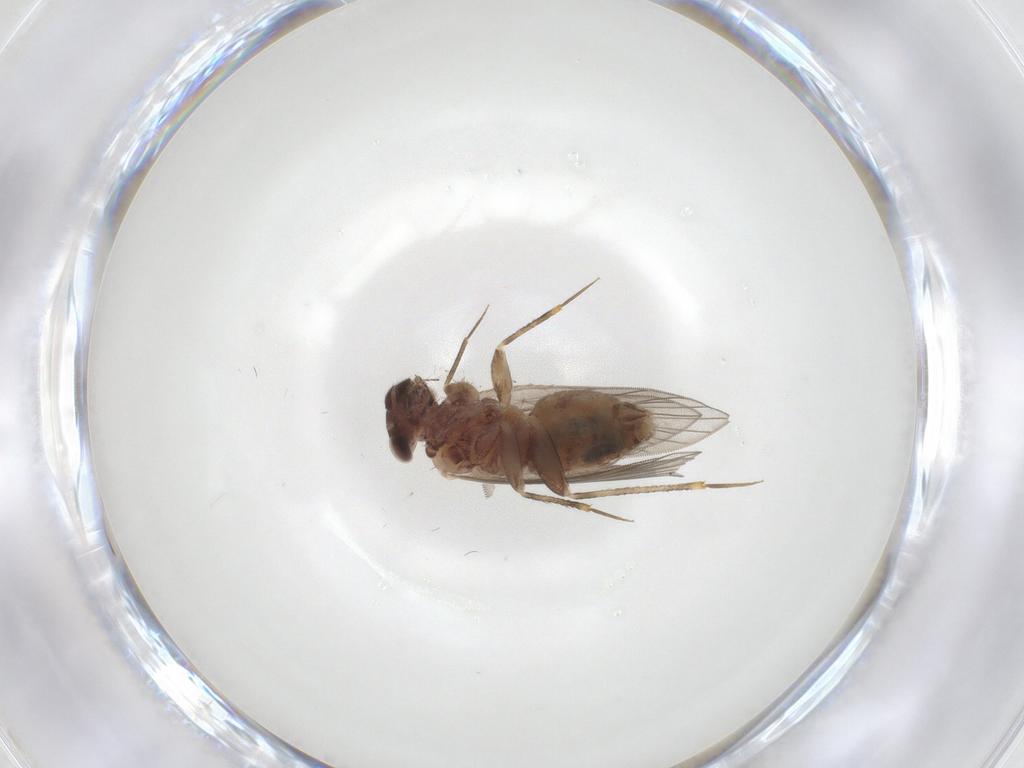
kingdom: Animalia
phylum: Arthropoda
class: Insecta
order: Psocodea
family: Lepidopsocidae
